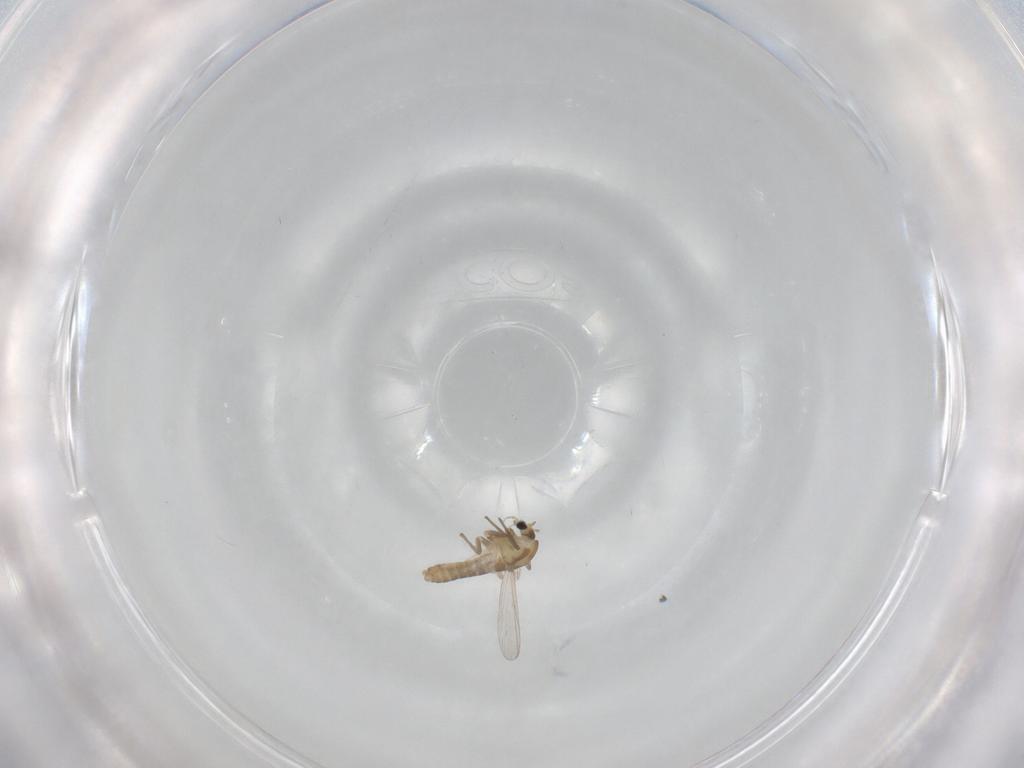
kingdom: Animalia
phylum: Arthropoda
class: Insecta
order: Diptera
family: Chironomidae
